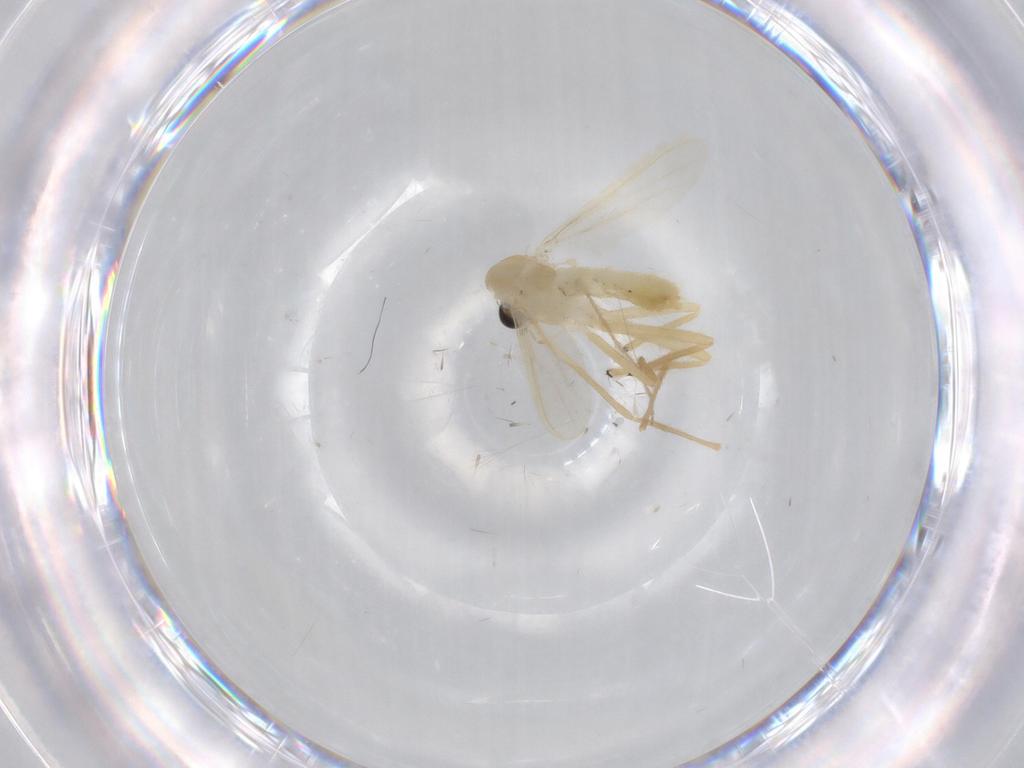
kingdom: Animalia
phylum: Arthropoda
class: Insecta
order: Diptera
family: Chironomidae
